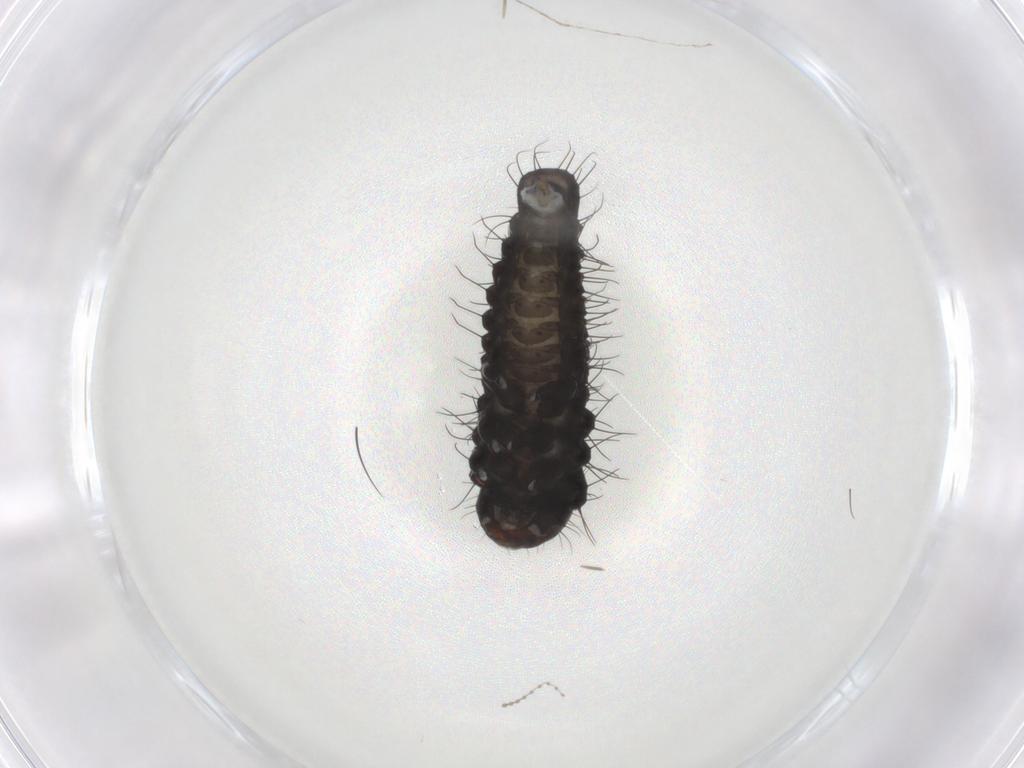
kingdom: Animalia
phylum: Arthropoda
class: Insecta
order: Coleoptera
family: Chrysomelidae
